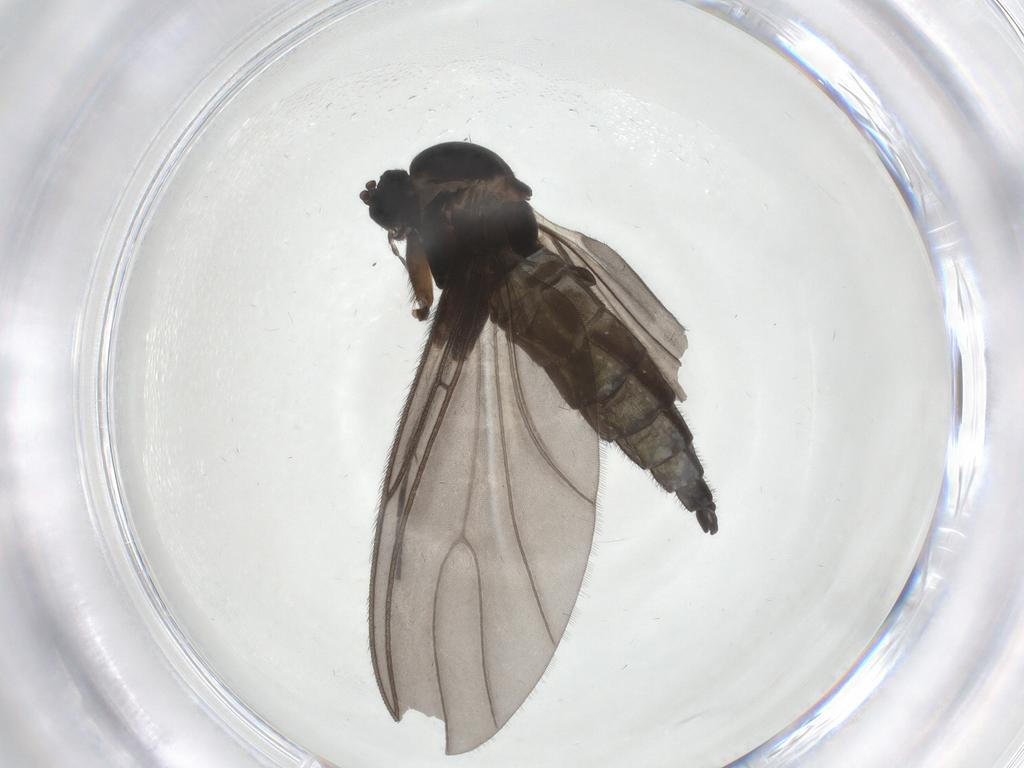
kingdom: Animalia
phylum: Arthropoda
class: Insecta
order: Diptera
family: Sciaridae
